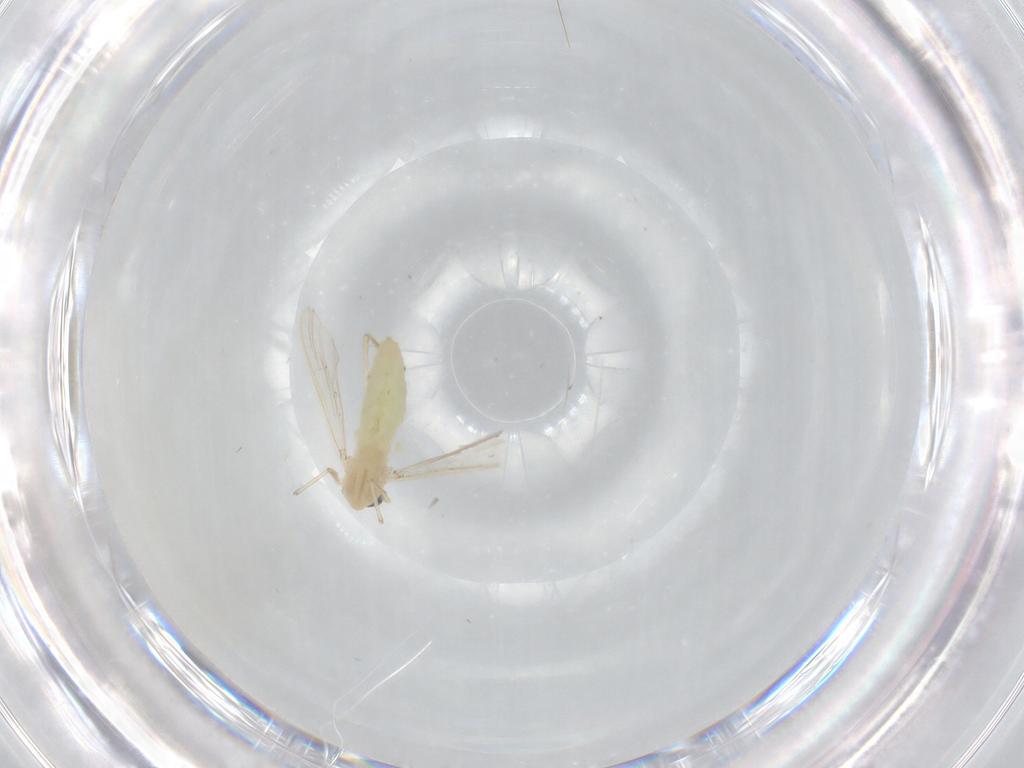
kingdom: Animalia
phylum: Arthropoda
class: Insecta
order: Diptera
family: Chironomidae
